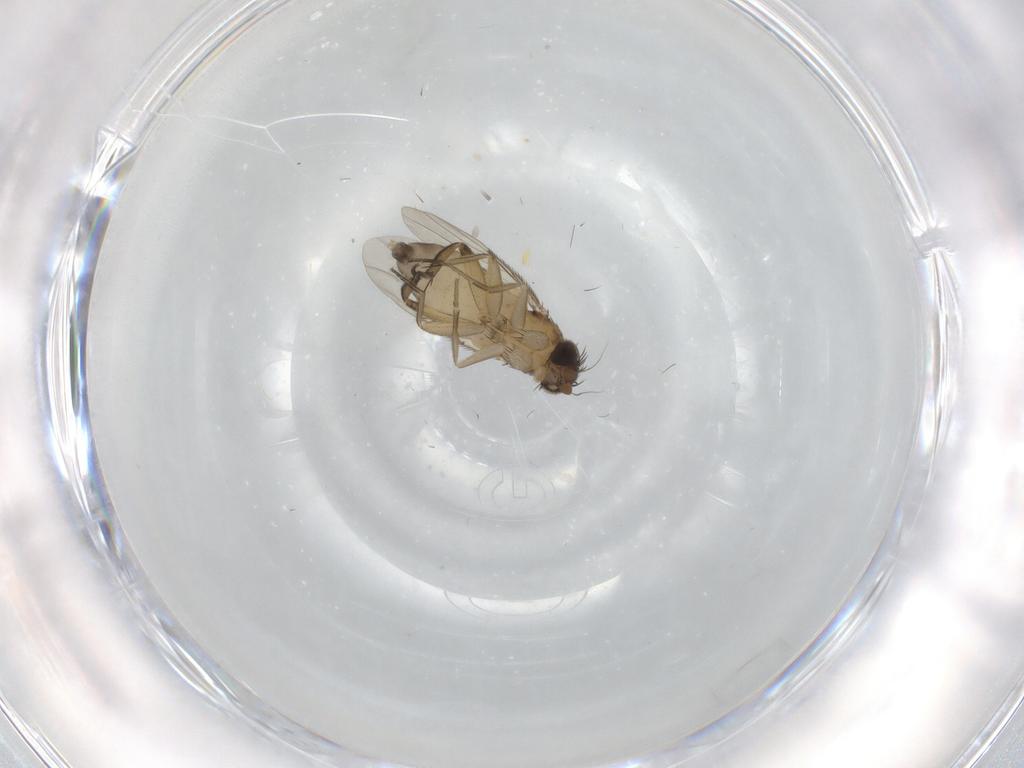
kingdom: Animalia
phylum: Arthropoda
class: Insecta
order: Diptera
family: Phoridae
